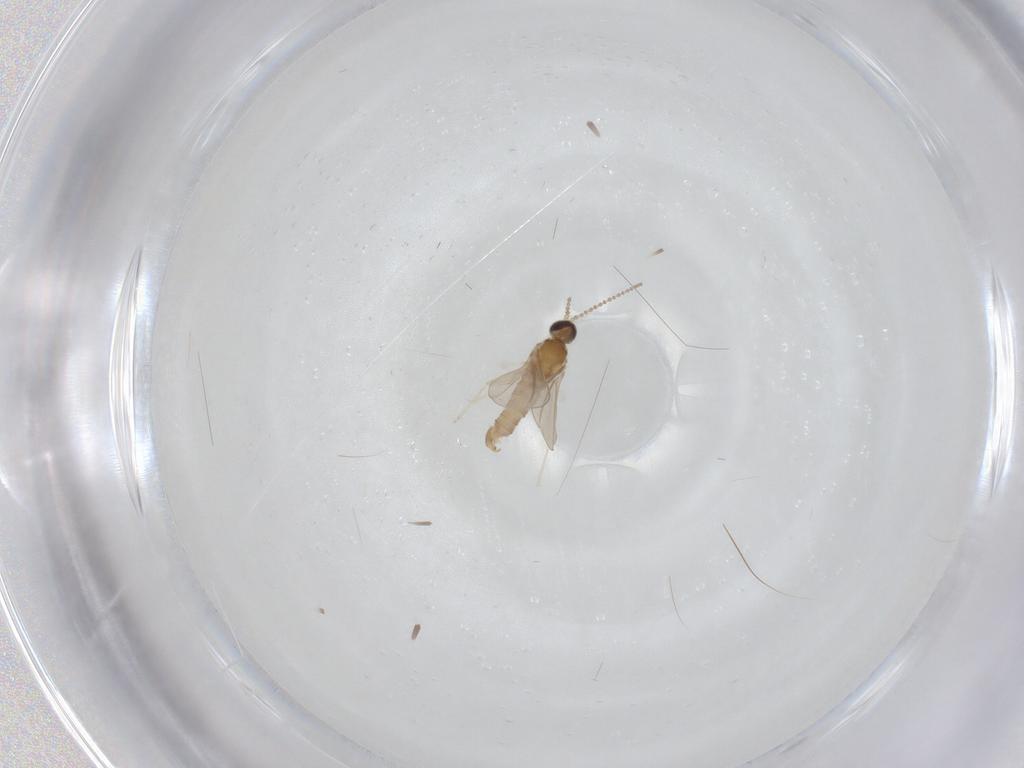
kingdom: Animalia
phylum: Arthropoda
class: Insecta
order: Diptera
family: Cecidomyiidae
